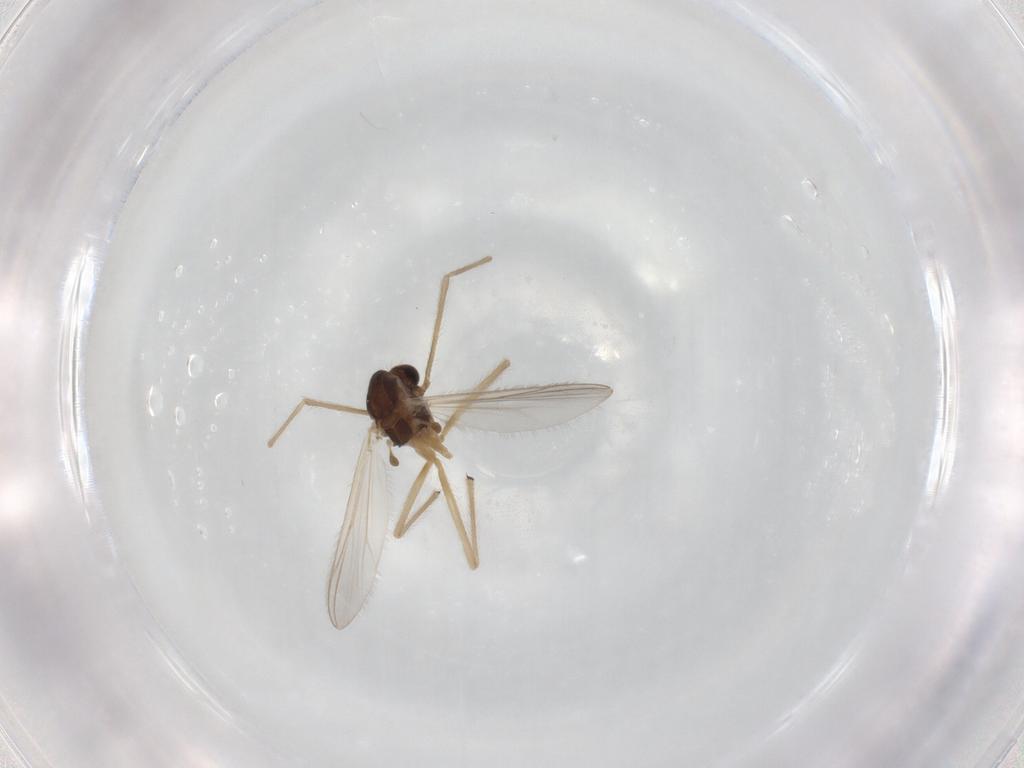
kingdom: Animalia
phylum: Arthropoda
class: Insecta
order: Diptera
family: Chironomidae
